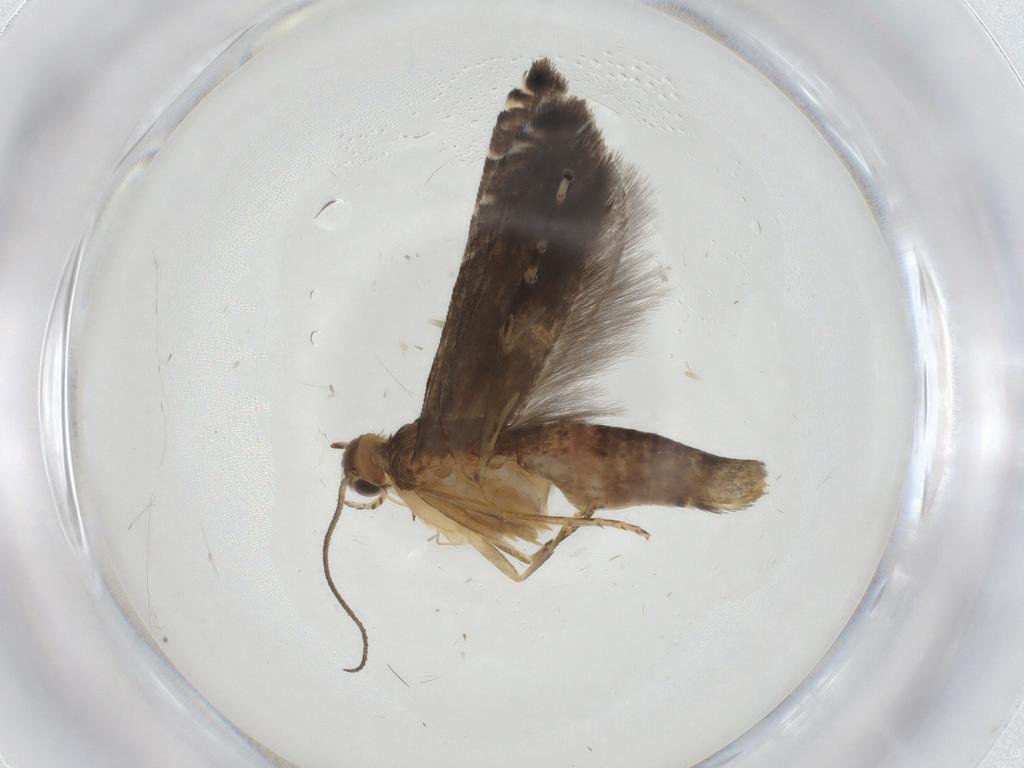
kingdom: Animalia
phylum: Arthropoda
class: Insecta
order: Lepidoptera
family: Glyphipterigidae
